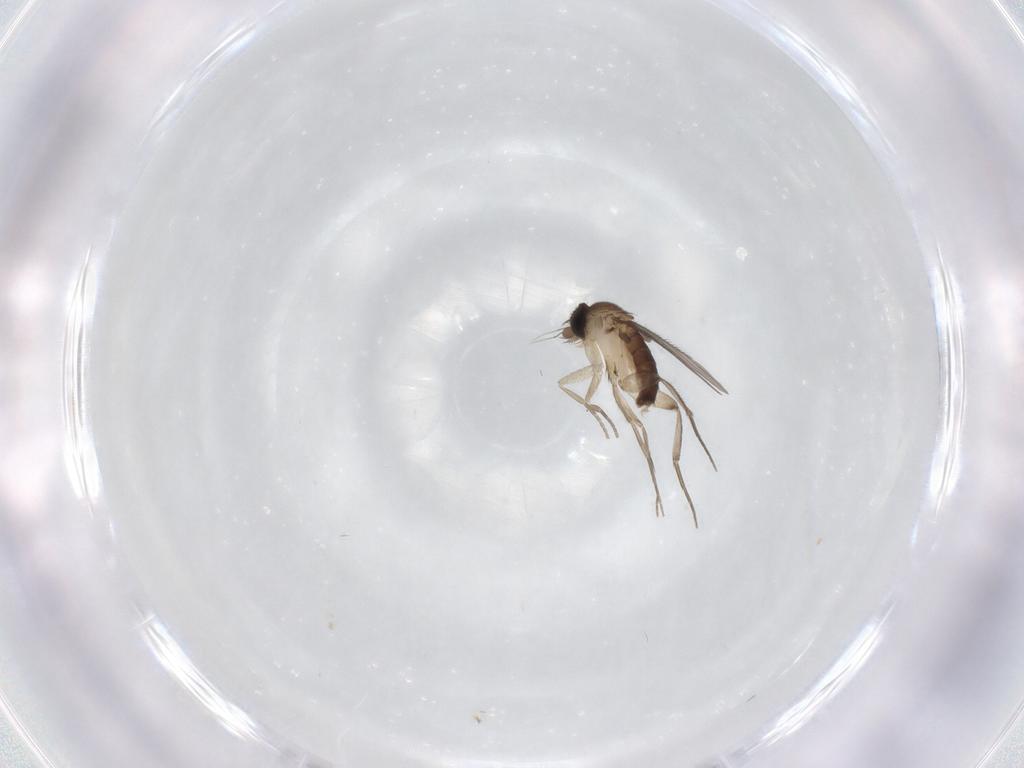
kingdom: Animalia
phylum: Arthropoda
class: Insecta
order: Diptera
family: Phoridae
